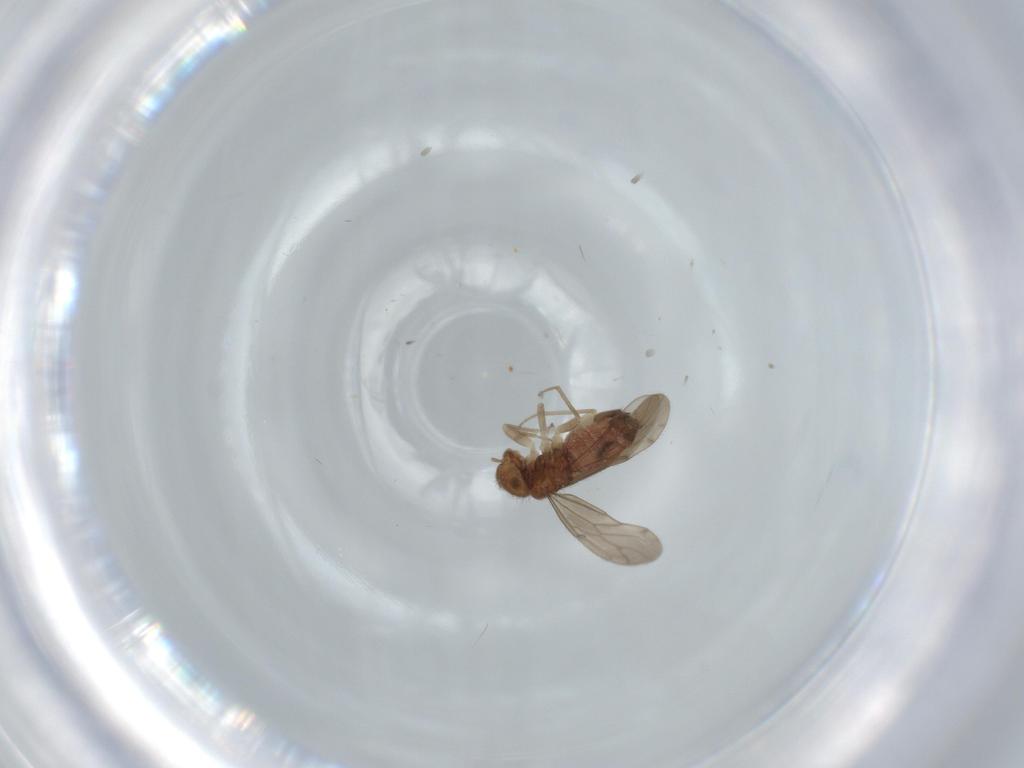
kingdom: Animalia
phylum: Arthropoda
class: Insecta
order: Psocodea
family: Ectopsocidae
